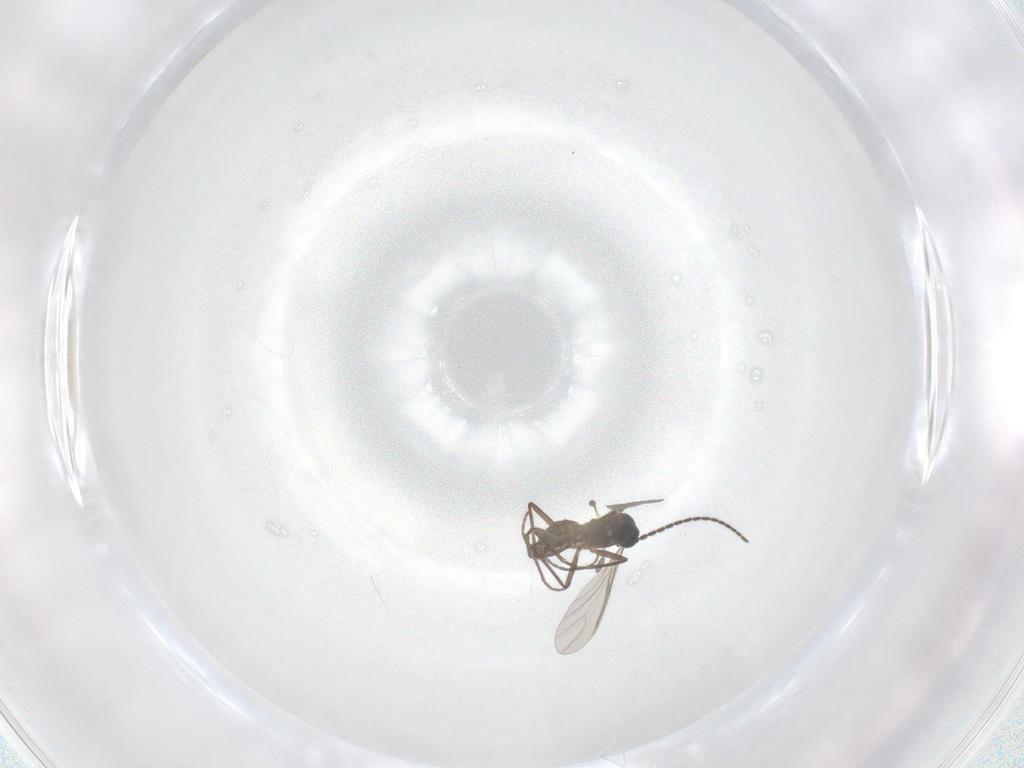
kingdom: Animalia
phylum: Arthropoda
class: Insecta
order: Diptera
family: Sciaridae
